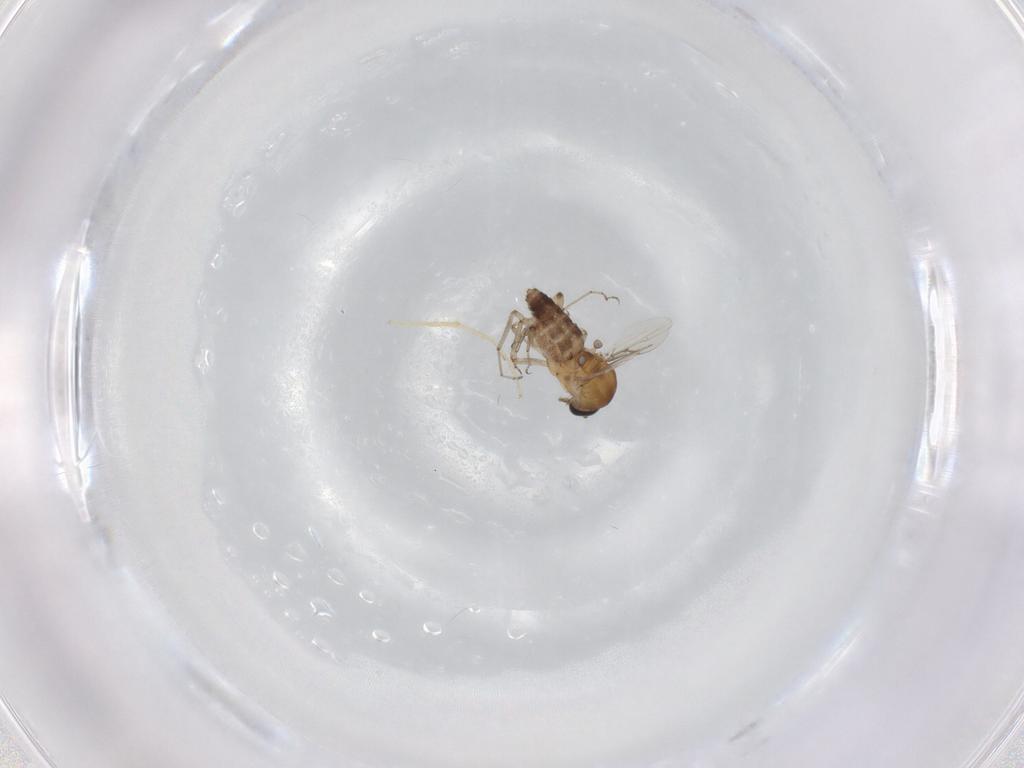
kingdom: Animalia
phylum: Arthropoda
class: Insecta
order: Diptera
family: Ceratopogonidae
